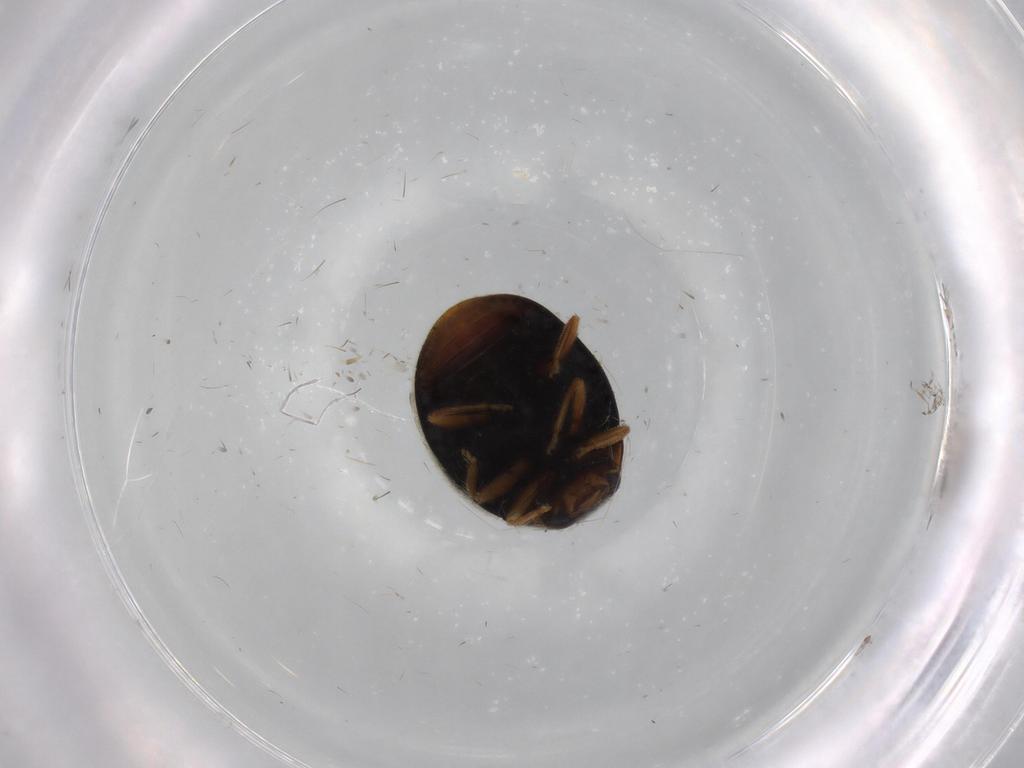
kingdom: Animalia
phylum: Arthropoda
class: Insecta
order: Coleoptera
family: Coccinellidae
